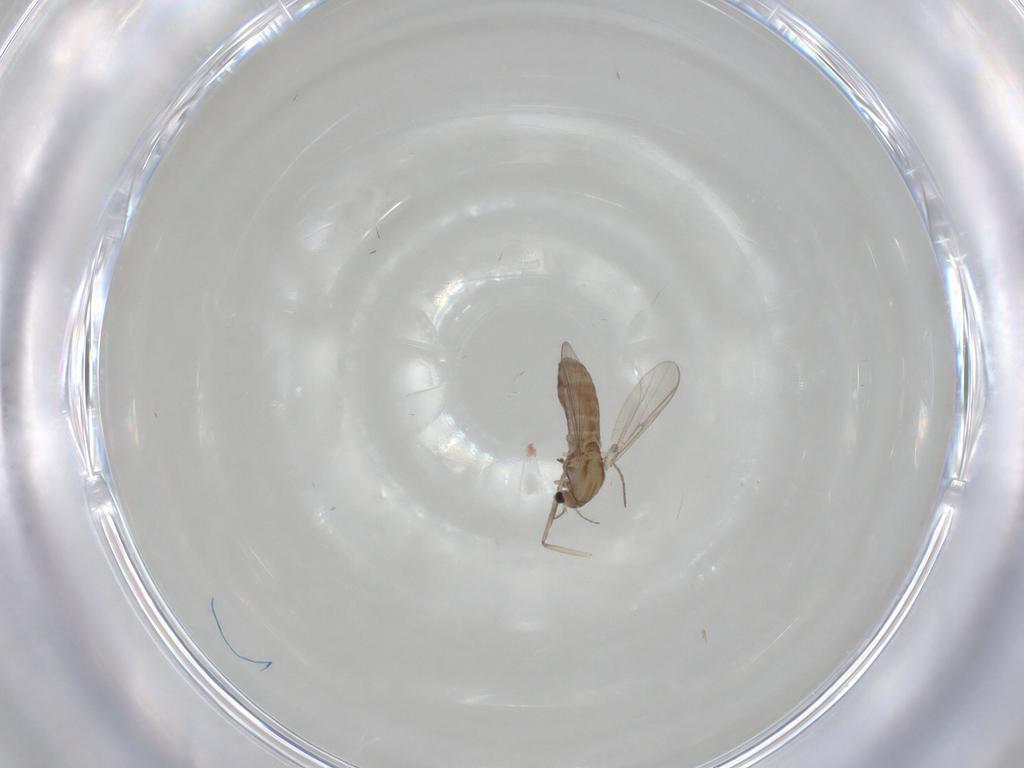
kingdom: Animalia
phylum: Arthropoda
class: Insecta
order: Diptera
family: Chironomidae
